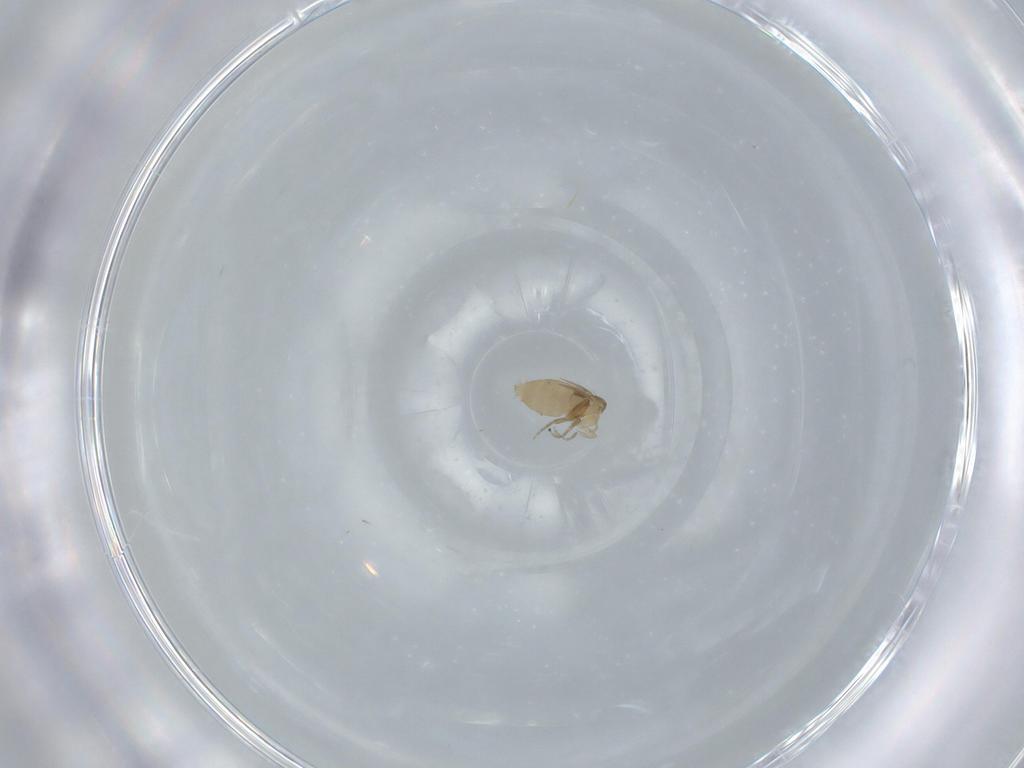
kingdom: Animalia
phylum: Arthropoda
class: Insecta
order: Diptera
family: Phoridae
